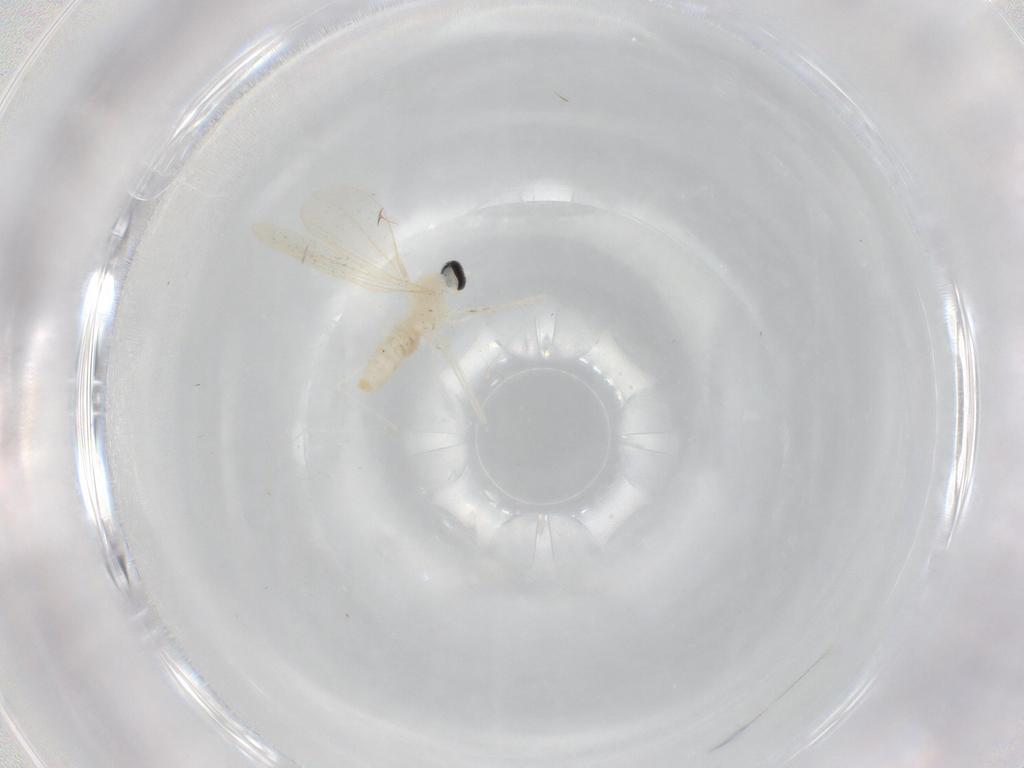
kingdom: Animalia
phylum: Arthropoda
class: Insecta
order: Diptera
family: Cecidomyiidae
